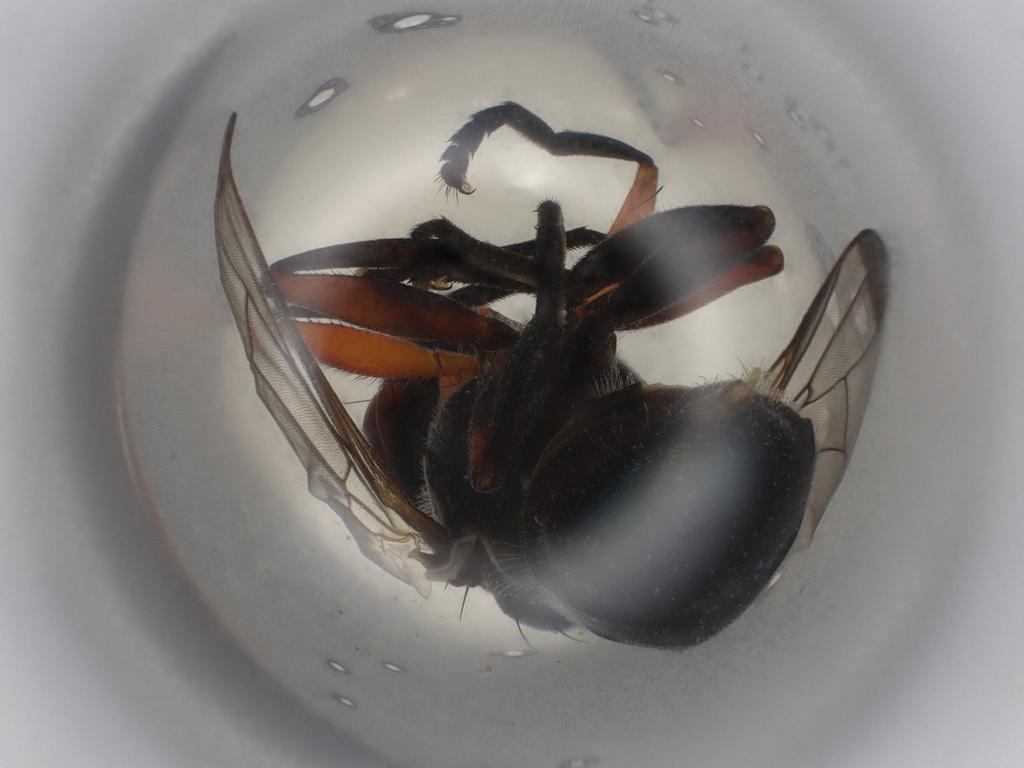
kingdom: Animalia
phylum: Arthropoda
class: Insecta
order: Hymenoptera
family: Braconidae
